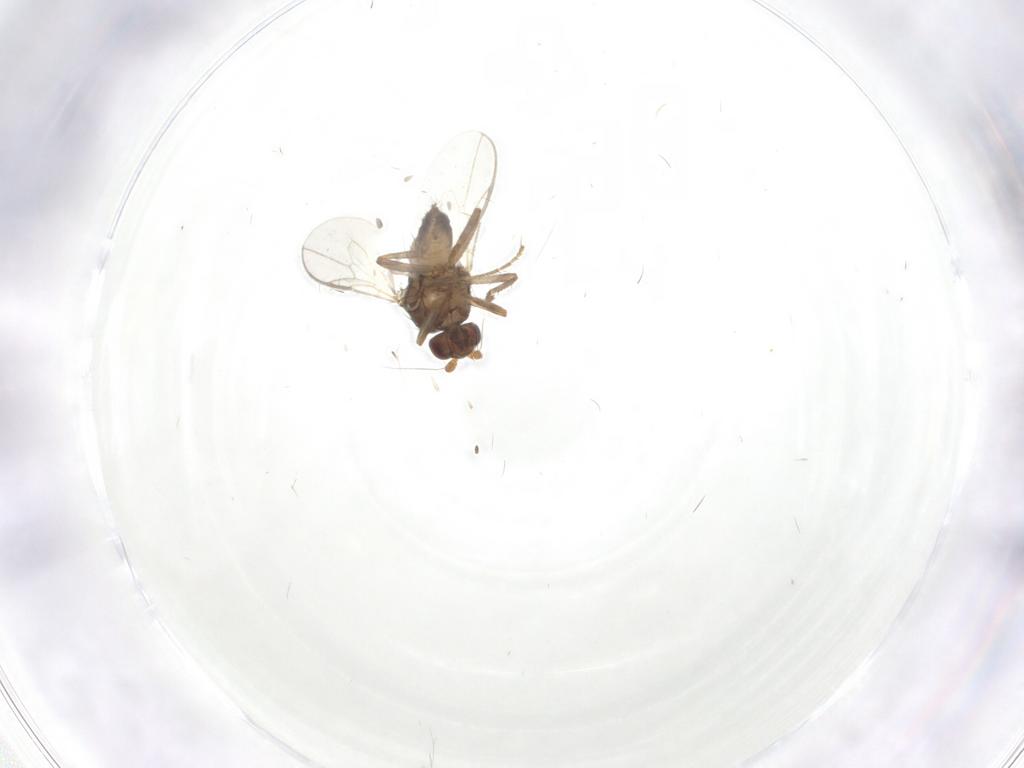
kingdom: Animalia
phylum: Arthropoda
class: Insecta
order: Diptera
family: Sphaeroceridae
